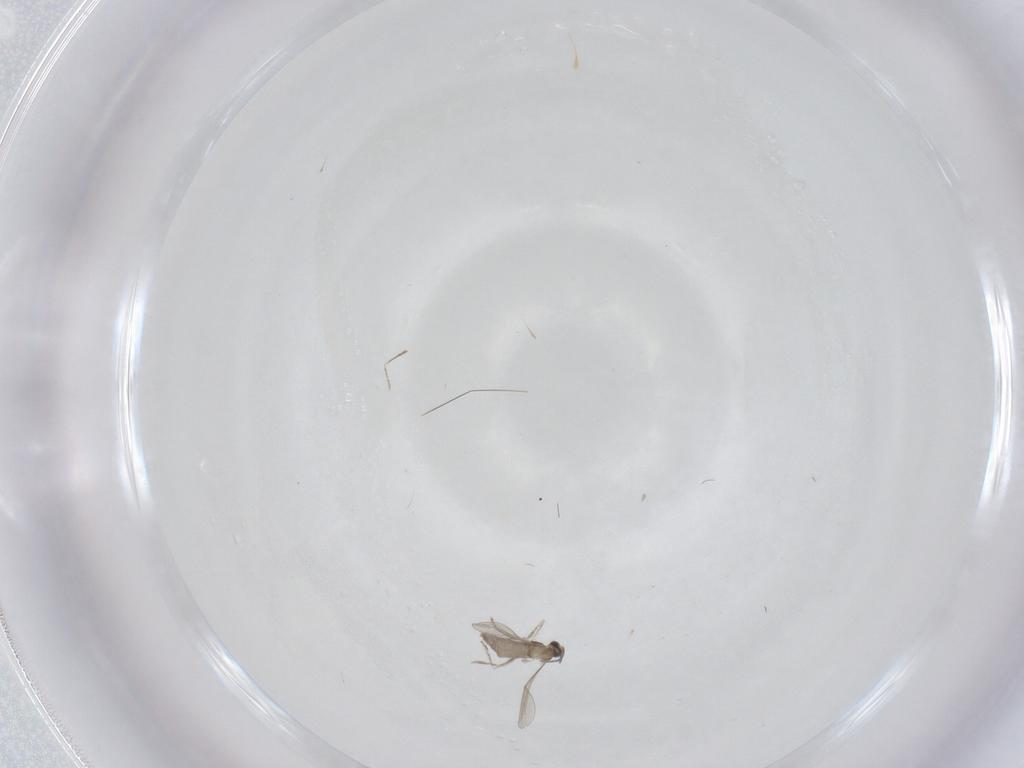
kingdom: Animalia
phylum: Arthropoda
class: Insecta
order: Diptera
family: Cecidomyiidae
